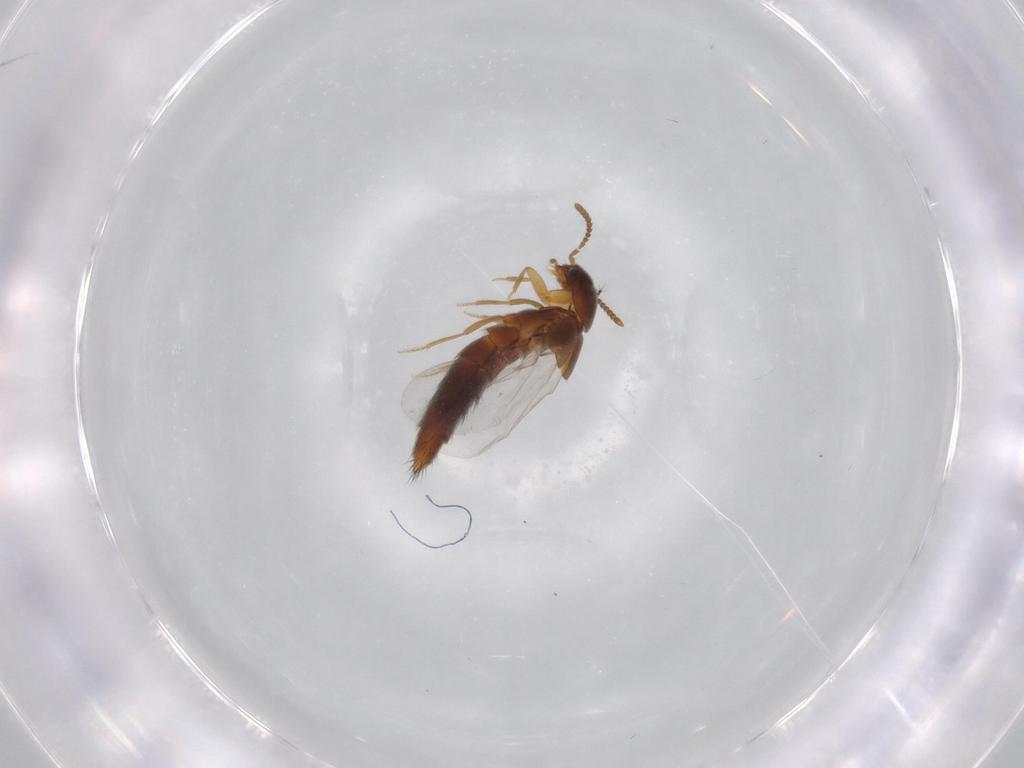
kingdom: Animalia
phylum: Arthropoda
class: Insecta
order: Coleoptera
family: Staphylinidae
